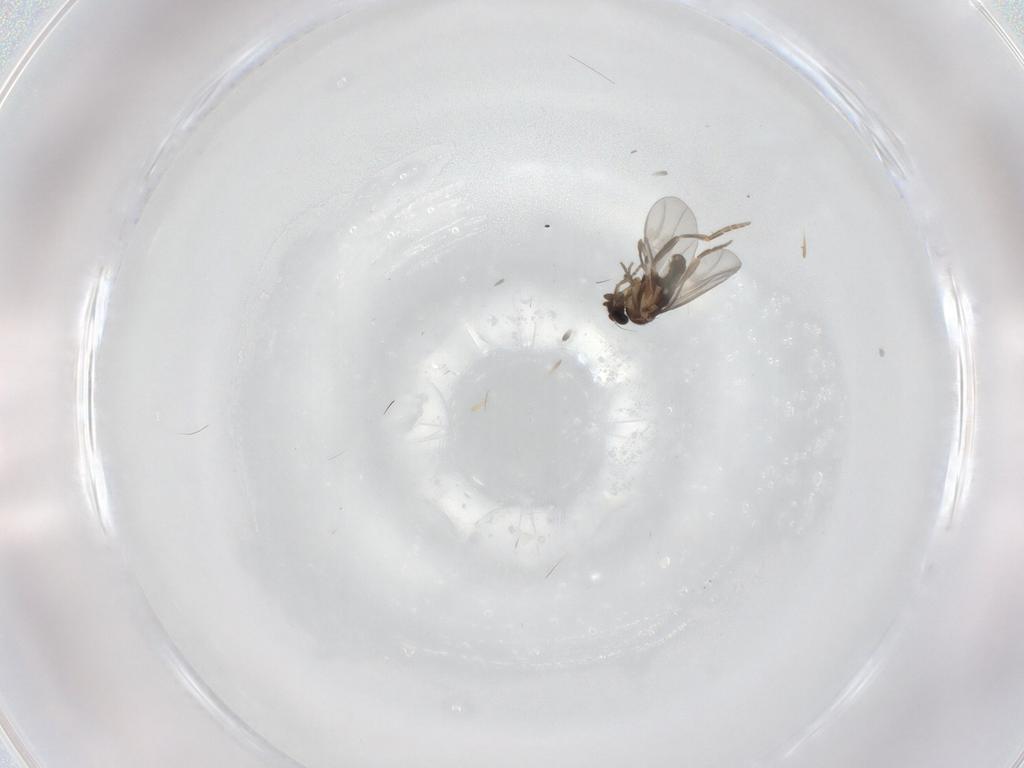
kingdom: Animalia
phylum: Arthropoda
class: Insecta
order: Diptera
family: Phoridae
